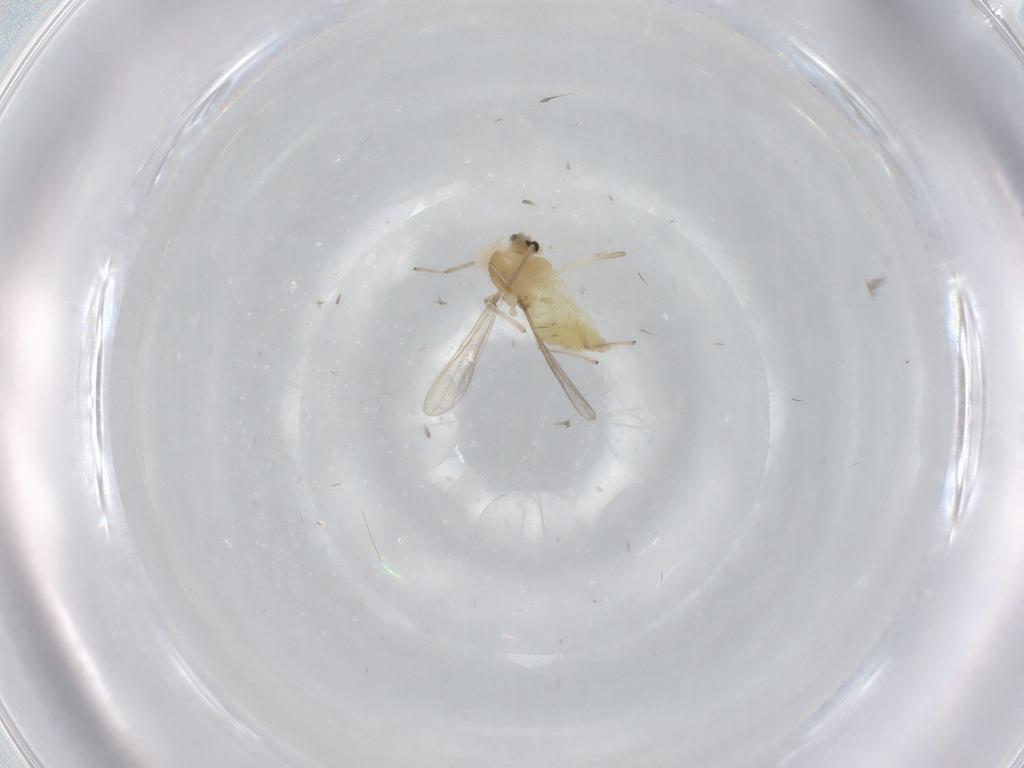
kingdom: Animalia
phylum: Arthropoda
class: Insecta
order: Diptera
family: Chironomidae
